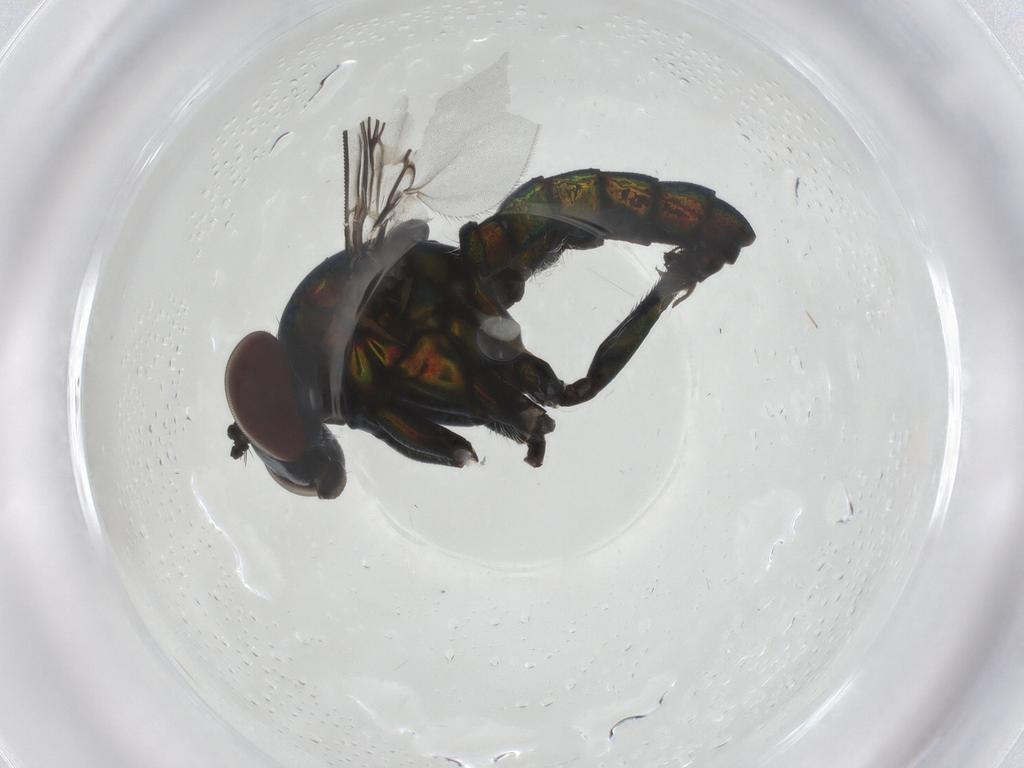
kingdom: Animalia
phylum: Arthropoda
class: Insecta
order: Diptera
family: Dolichopodidae
